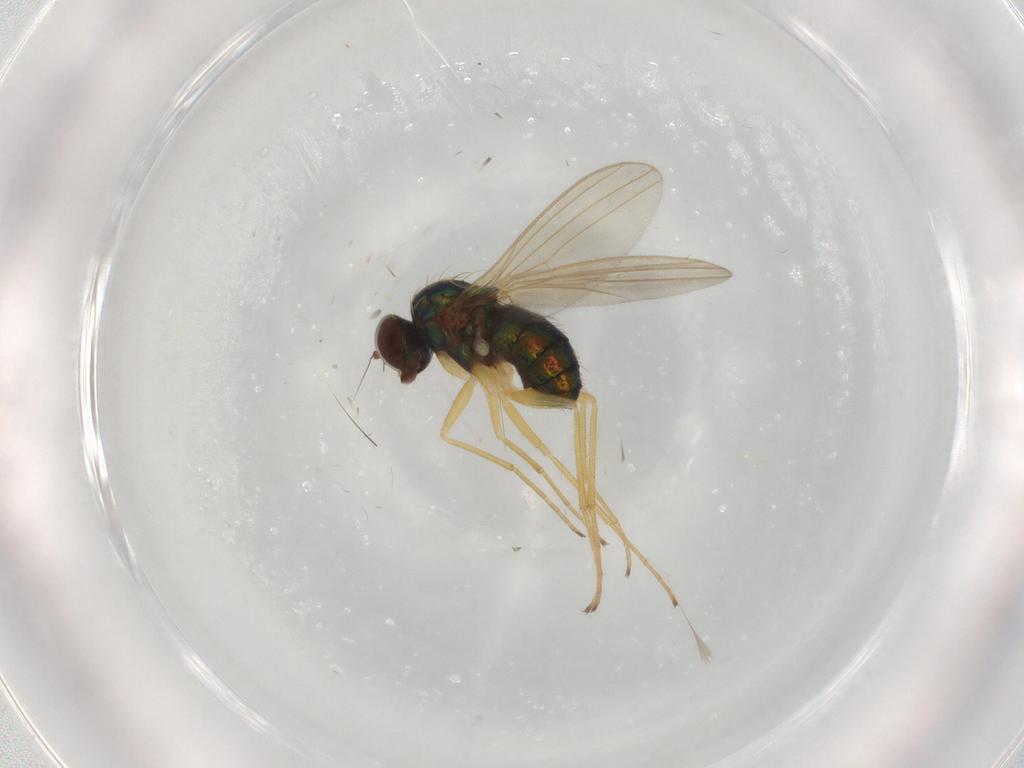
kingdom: Animalia
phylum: Arthropoda
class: Insecta
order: Diptera
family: Dolichopodidae
